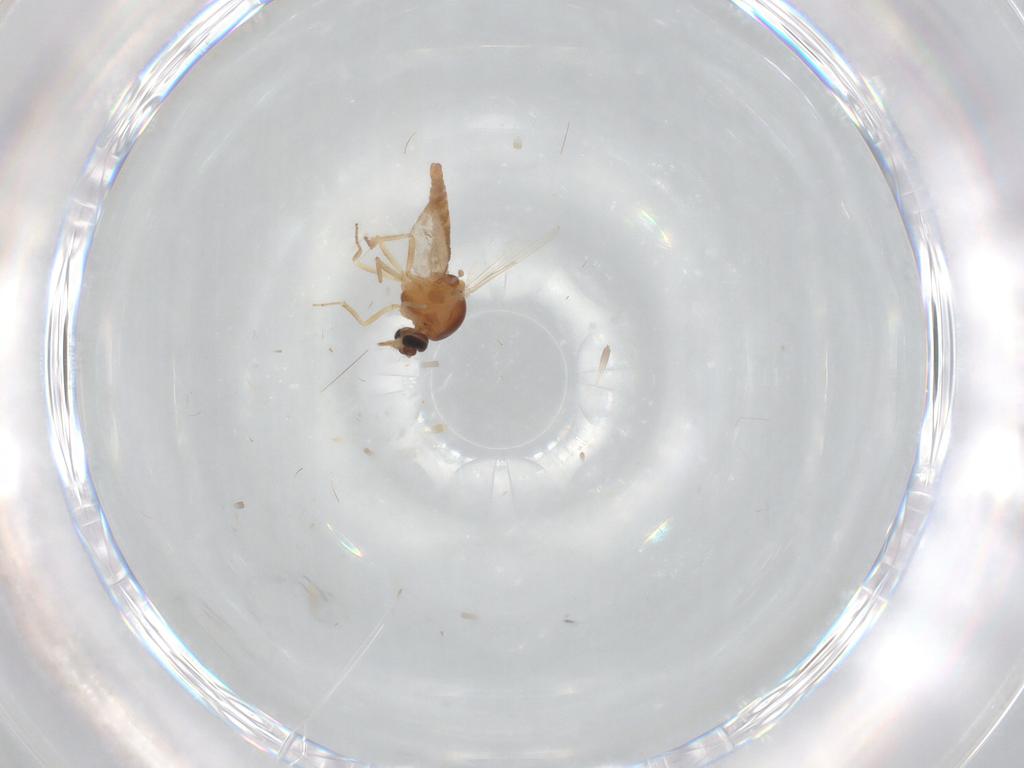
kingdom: Animalia
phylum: Arthropoda
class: Insecta
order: Diptera
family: Ceratopogonidae
